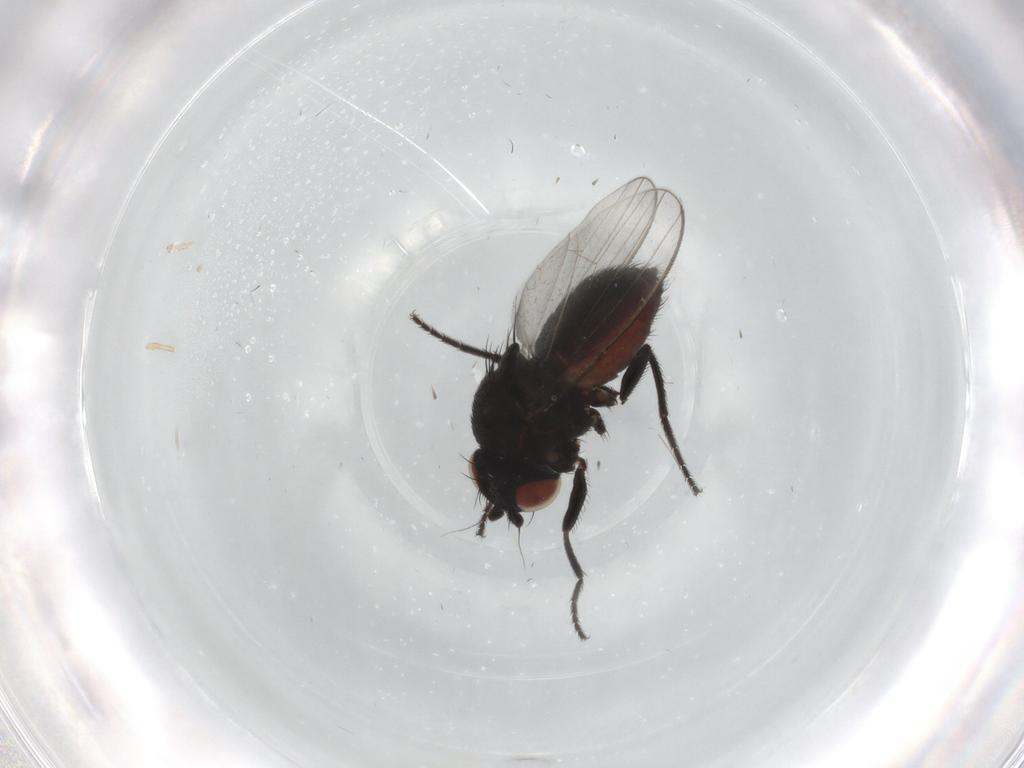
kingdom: Animalia
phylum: Arthropoda
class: Insecta
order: Diptera
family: Milichiidae
